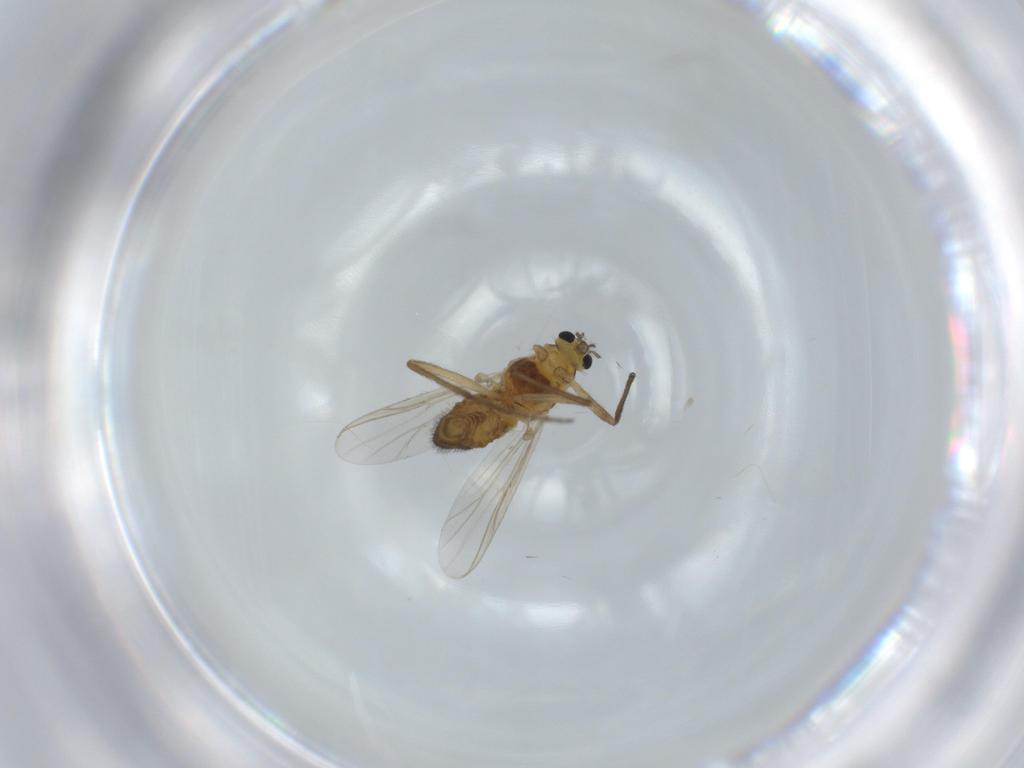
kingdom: Animalia
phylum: Arthropoda
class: Insecta
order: Diptera
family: Chironomidae
